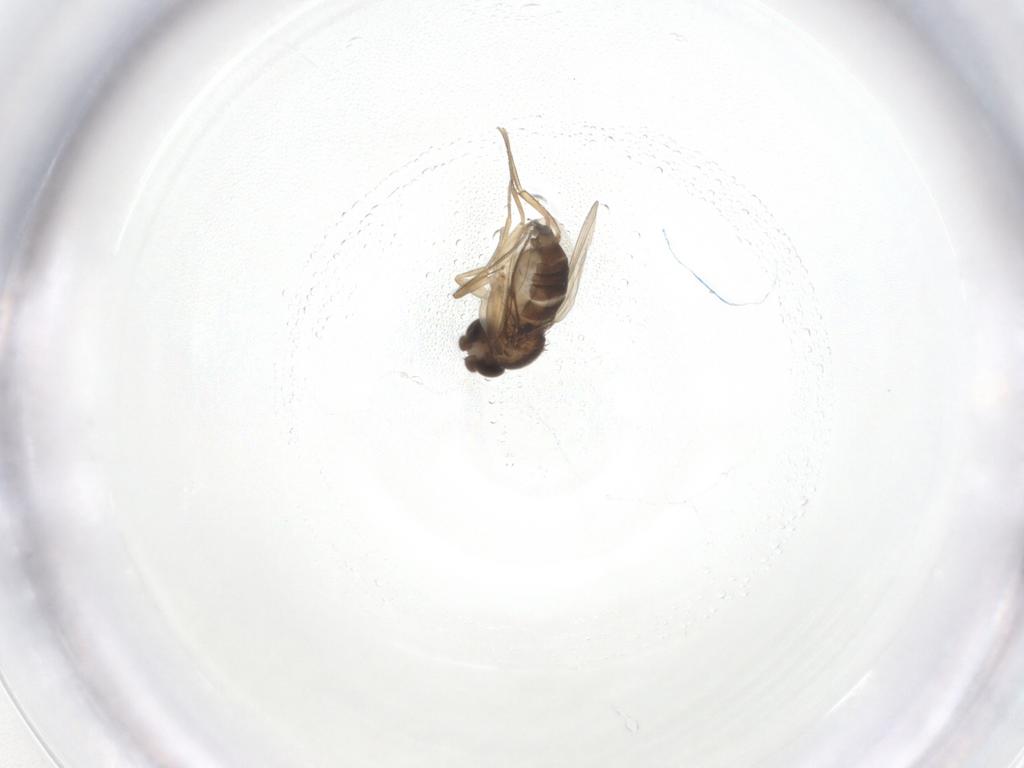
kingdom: Animalia
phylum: Arthropoda
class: Insecta
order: Diptera
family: Phoridae
